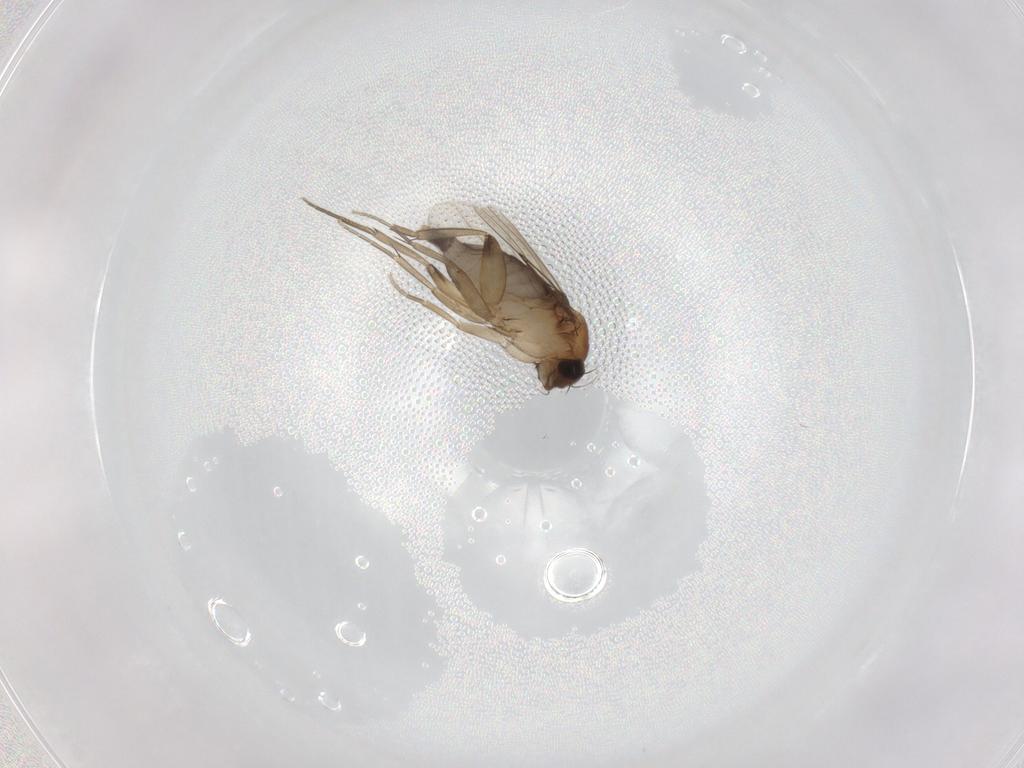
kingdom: Animalia
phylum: Arthropoda
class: Insecta
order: Diptera
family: Phoridae
